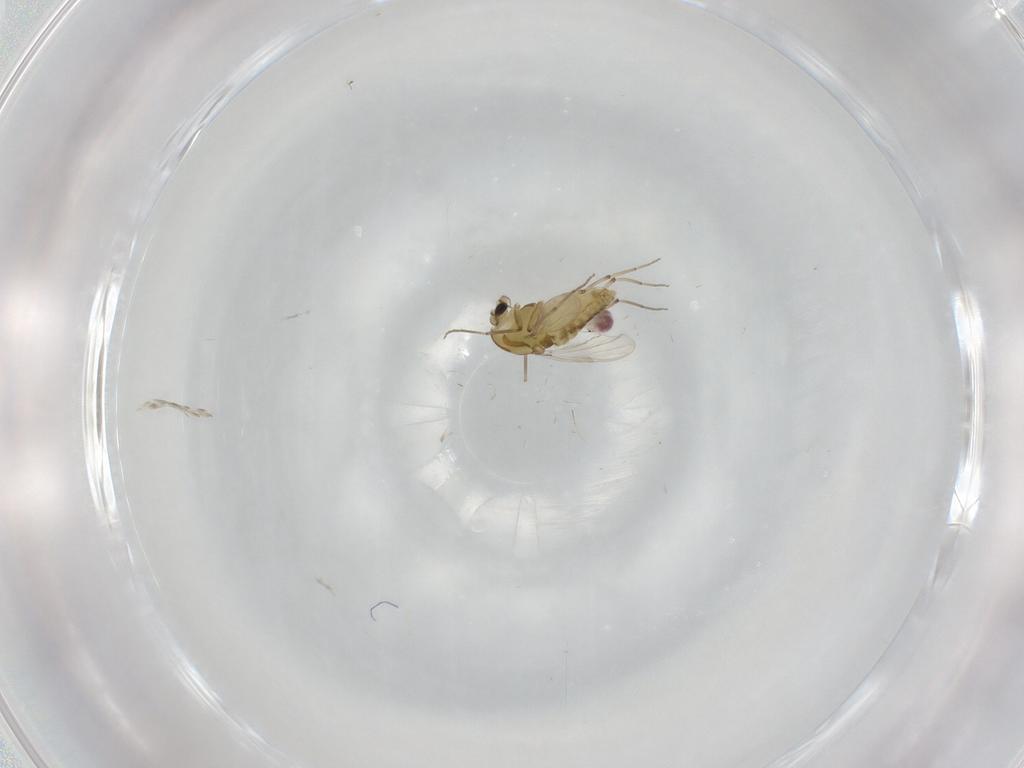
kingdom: Animalia
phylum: Arthropoda
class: Insecta
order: Diptera
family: Chironomidae
